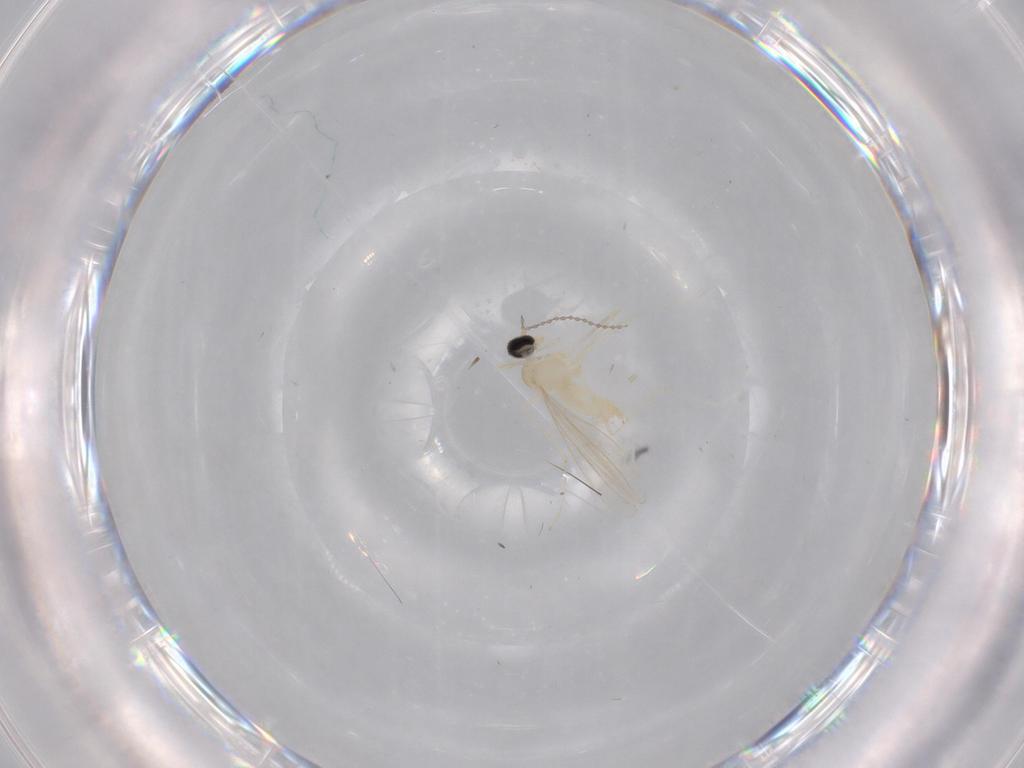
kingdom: Animalia
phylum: Arthropoda
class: Insecta
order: Diptera
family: Cecidomyiidae
